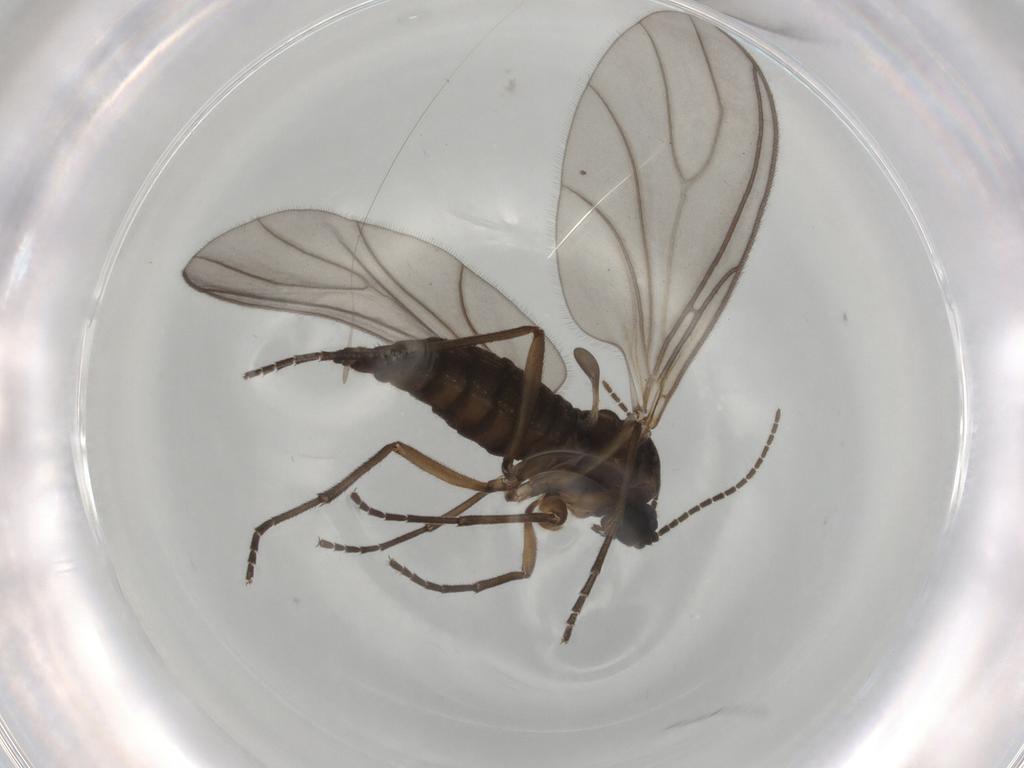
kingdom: Animalia
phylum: Arthropoda
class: Insecta
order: Diptera
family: Sciaridae
